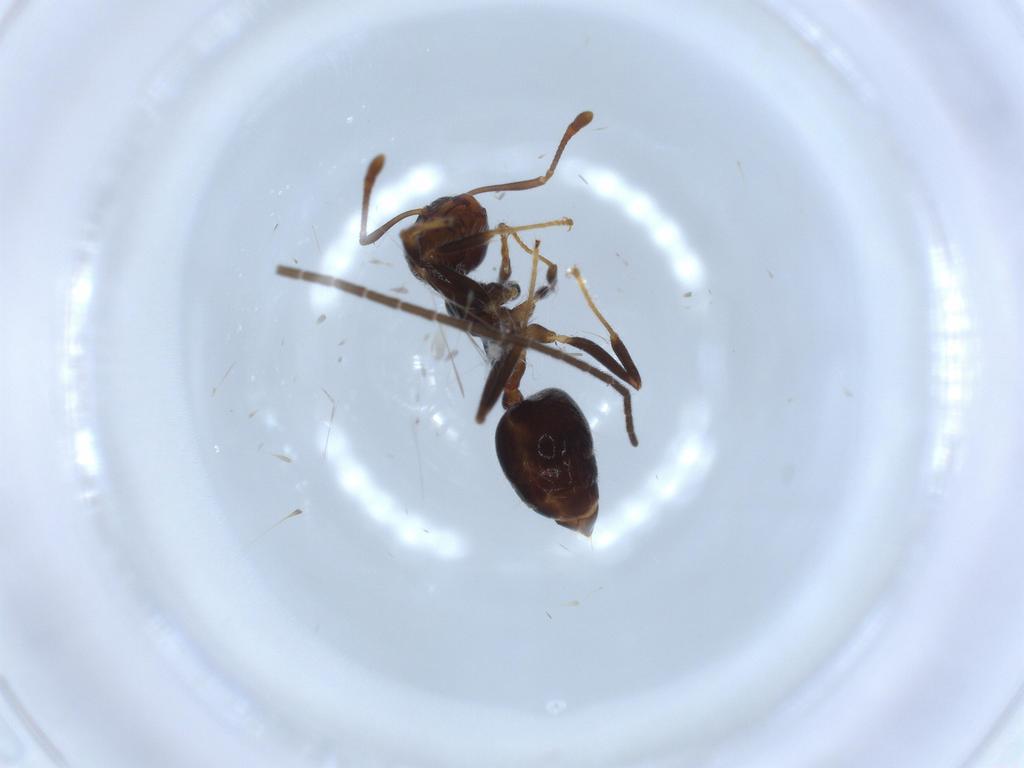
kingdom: Animalia
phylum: Arthropoda
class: Insecta
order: Hymenoptera
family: Formicidae
